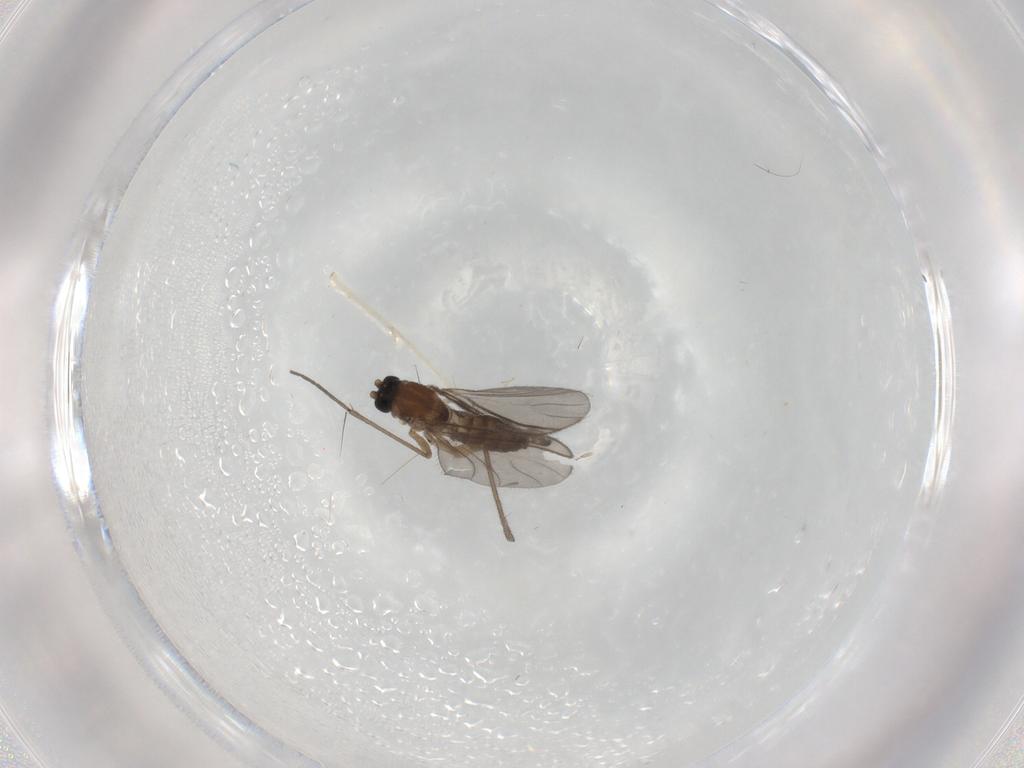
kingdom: Animalia
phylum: Arthropoda
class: Insecta
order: Diptera
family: Sciaridae
